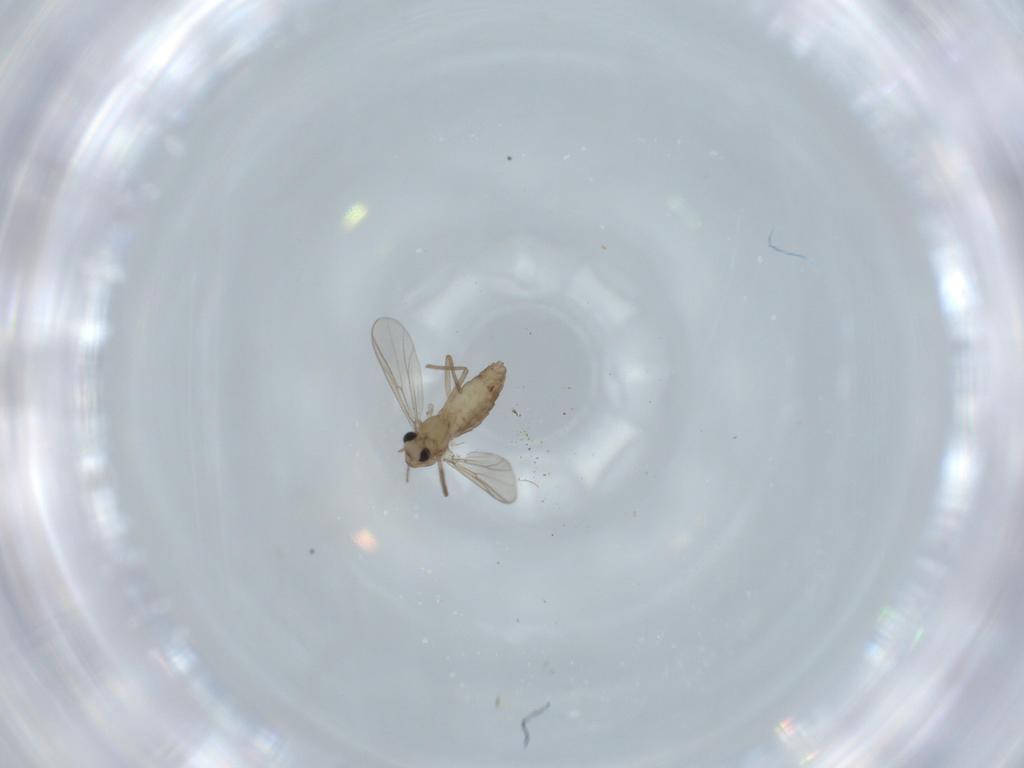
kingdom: Animalia
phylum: Arthropoda
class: Insecta
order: Diptera
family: Chironomidae
